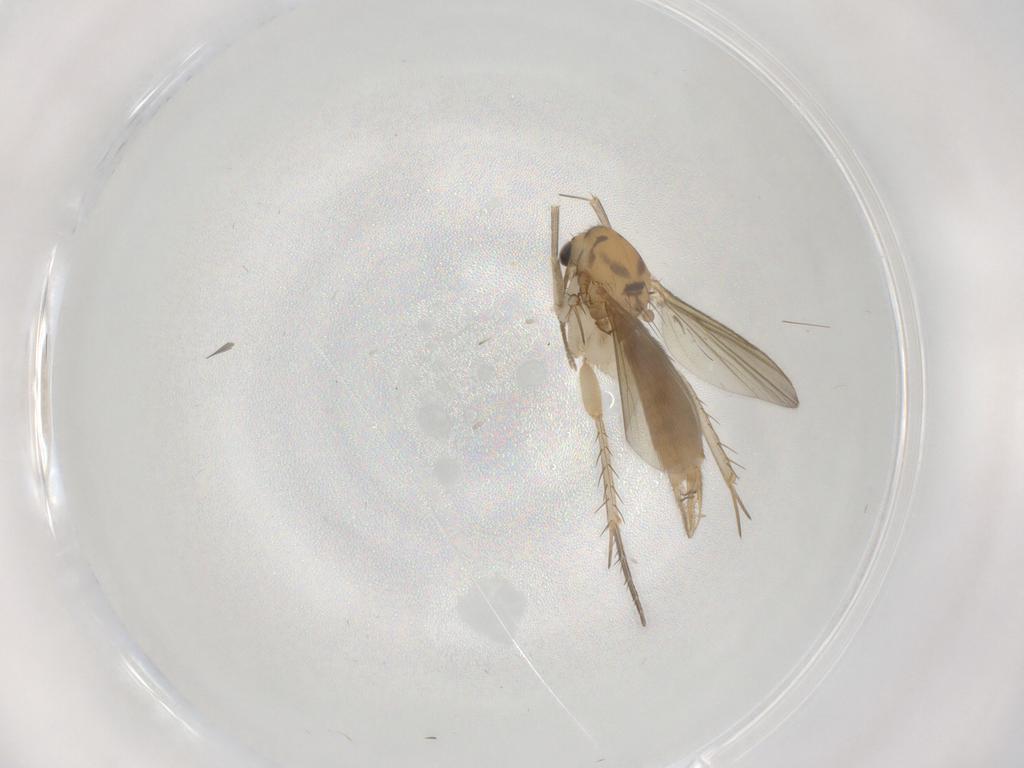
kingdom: Animalia
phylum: Arthropoda
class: Insecta
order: Diptera
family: Mycetophilidae
